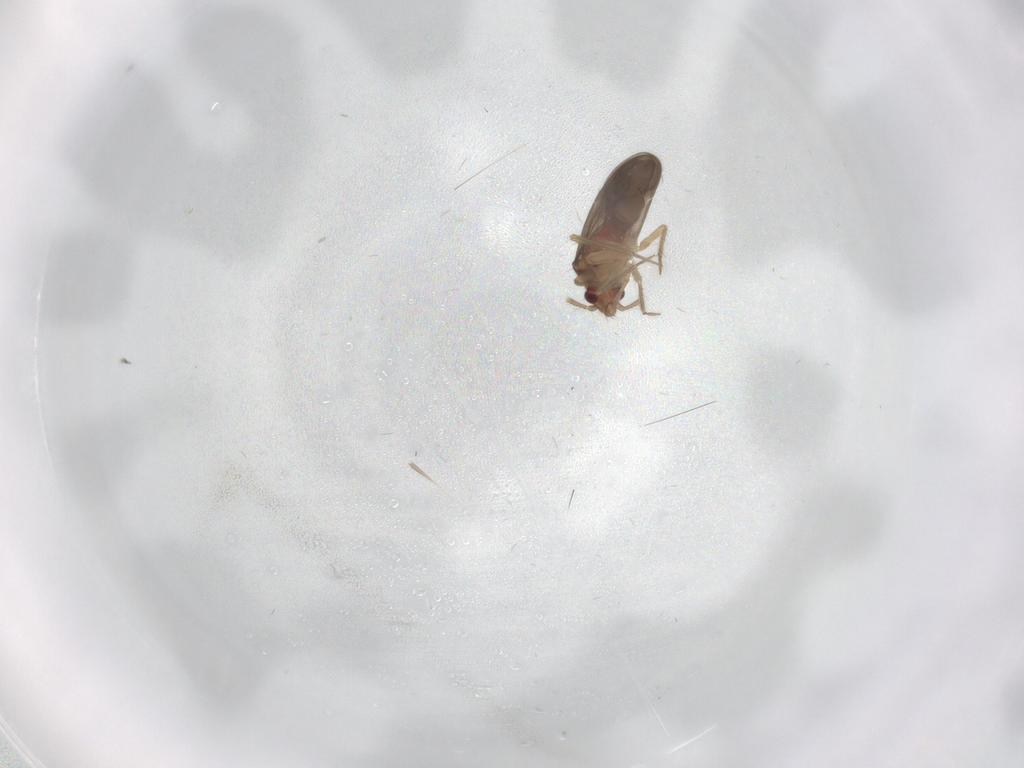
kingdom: Animalia
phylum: Arthropoda
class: Insecta
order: Hemiptera
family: Ceratocombidae
